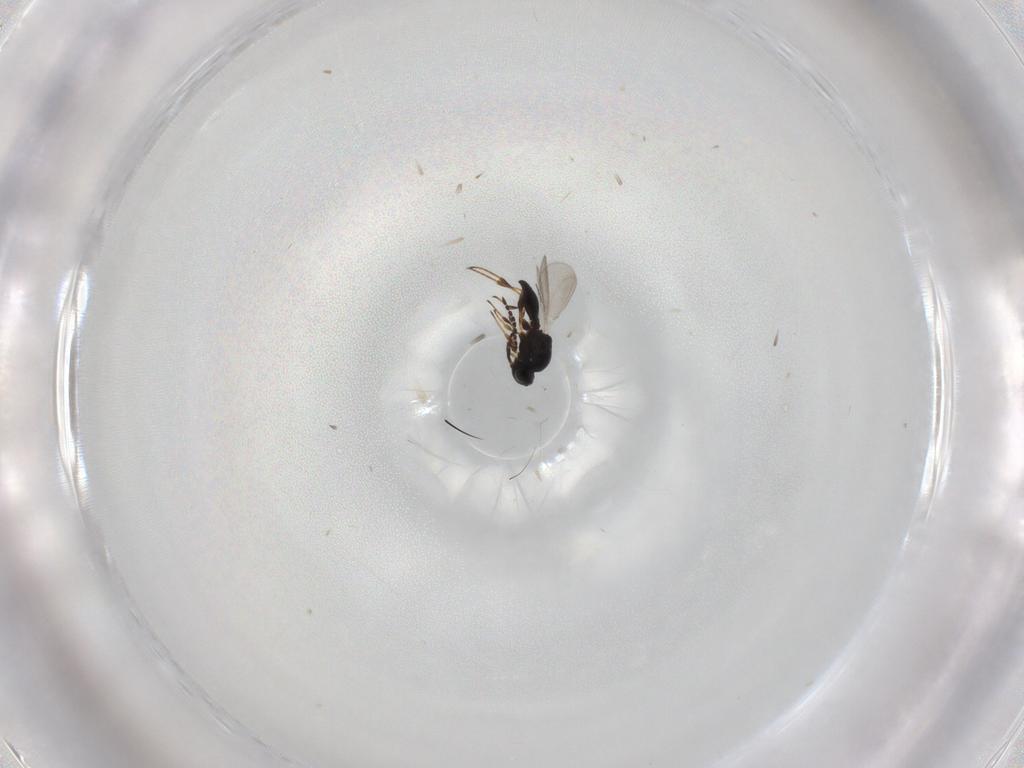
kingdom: Animalia
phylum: Arthropoda
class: Insecta
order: Hymenoptera
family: Platygastridae
